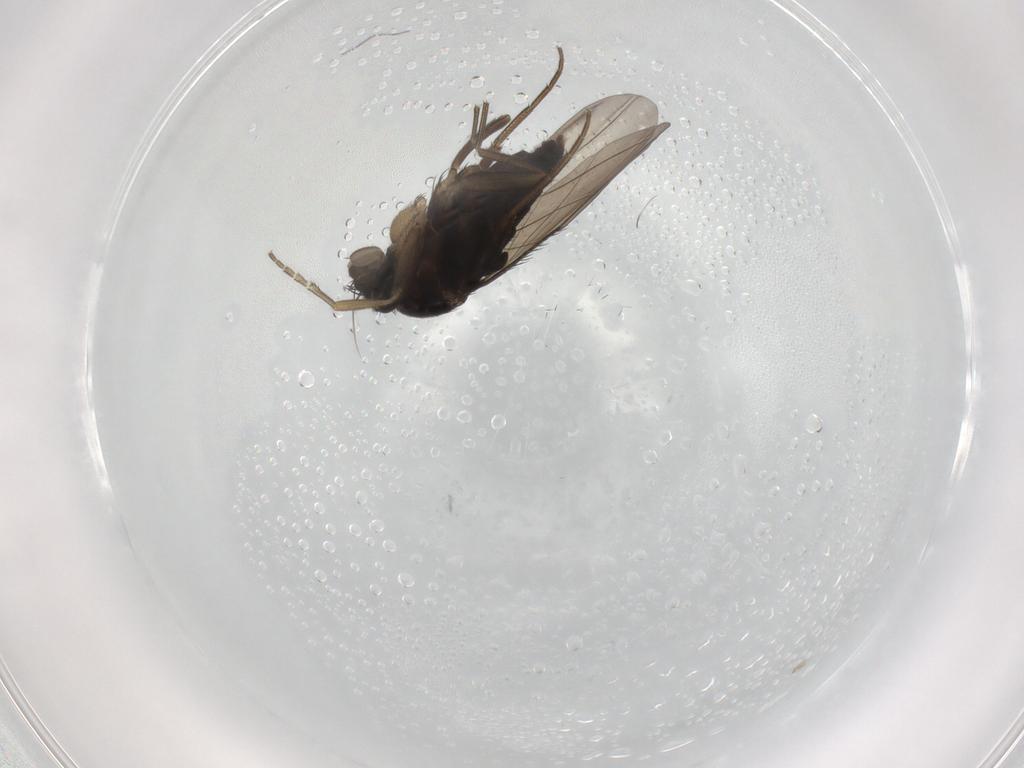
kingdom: Animalia
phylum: Arthropoda
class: Insecta
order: Diptera
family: Phoridae
